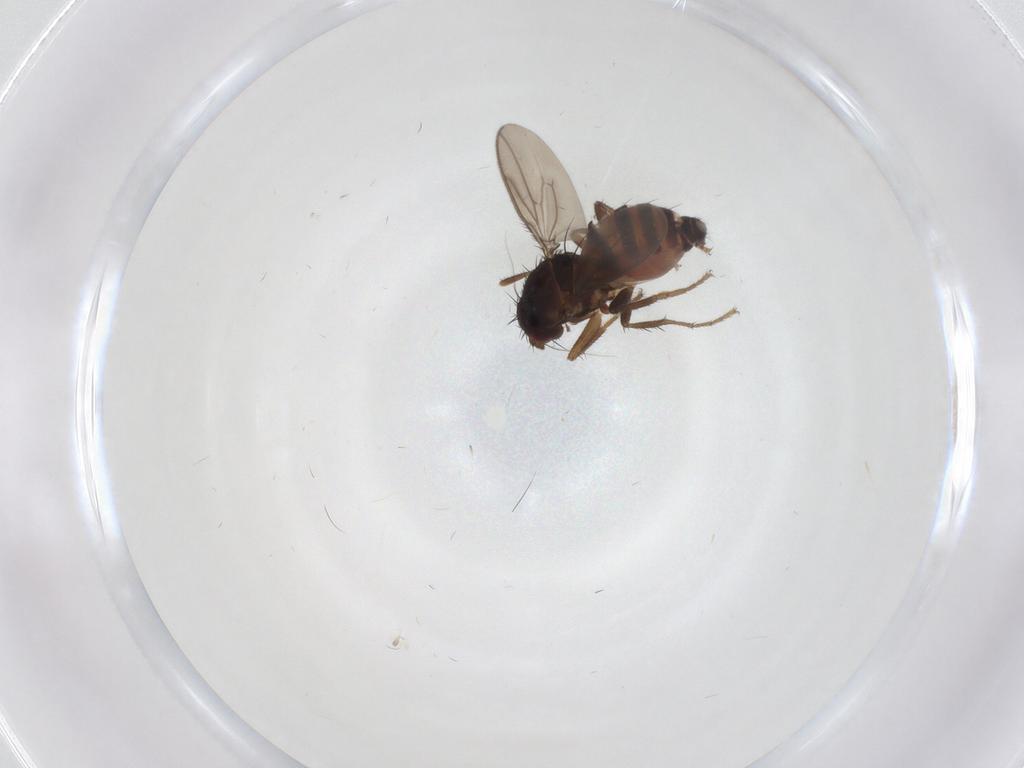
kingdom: Animalia
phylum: Arthropoda
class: Insecta
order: Diptera
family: Sphaeroceridae
